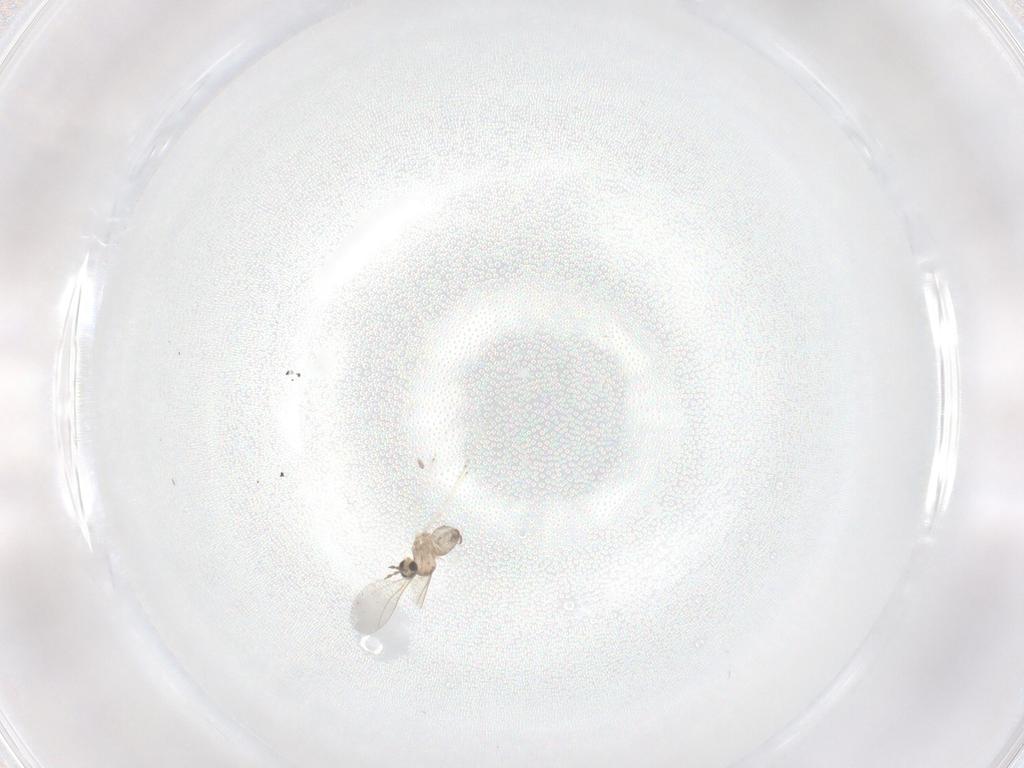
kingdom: Animalia
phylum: Arthropoda
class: Insecta
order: Diptera
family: Cecidomyiidae
